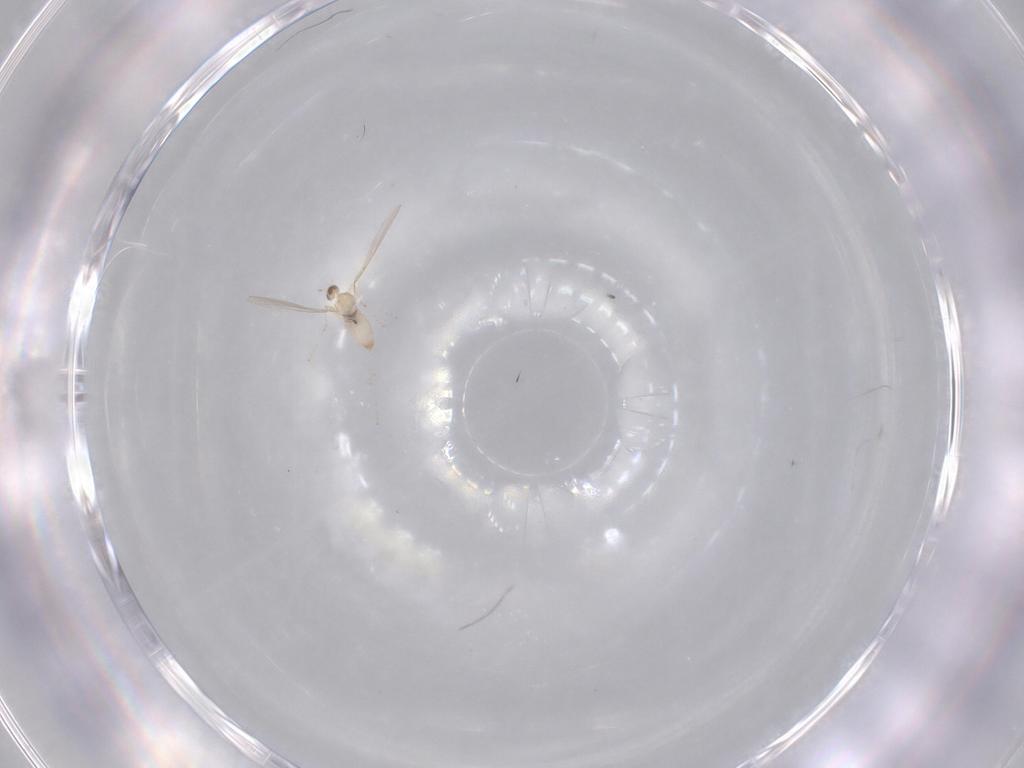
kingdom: Animalia
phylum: Arthropoda
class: Insecta
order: Diptera
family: Cecidomyiidae
